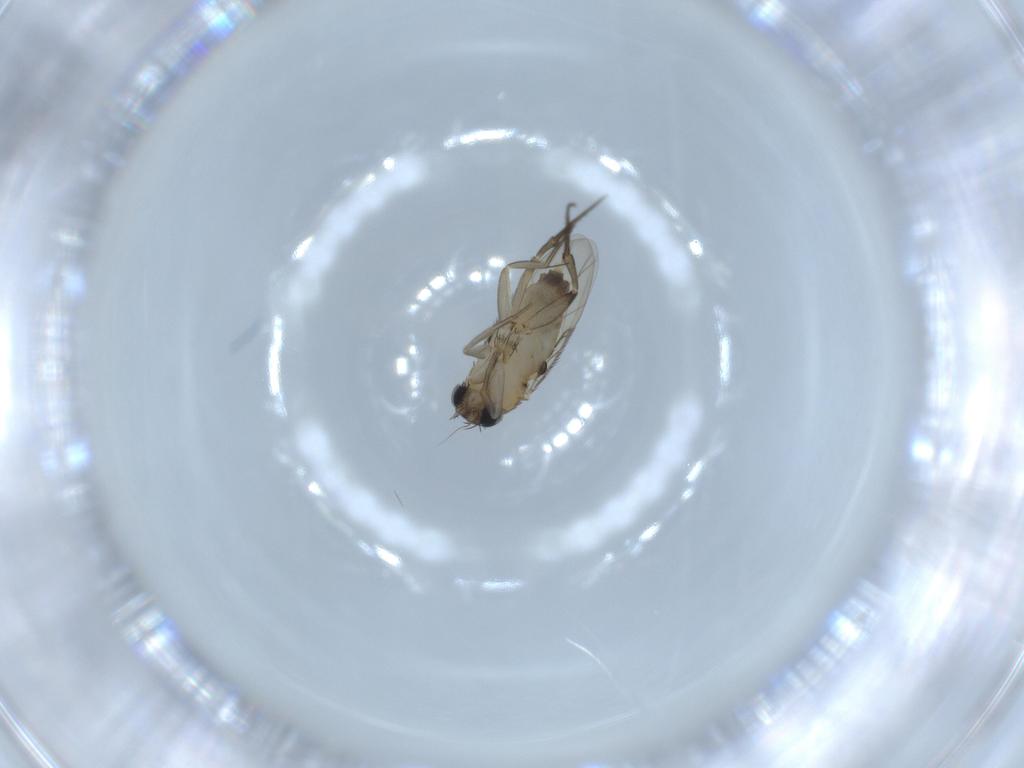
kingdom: Animalia
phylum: Arthropoda
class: Insecta
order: Diptera
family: Phoridae
